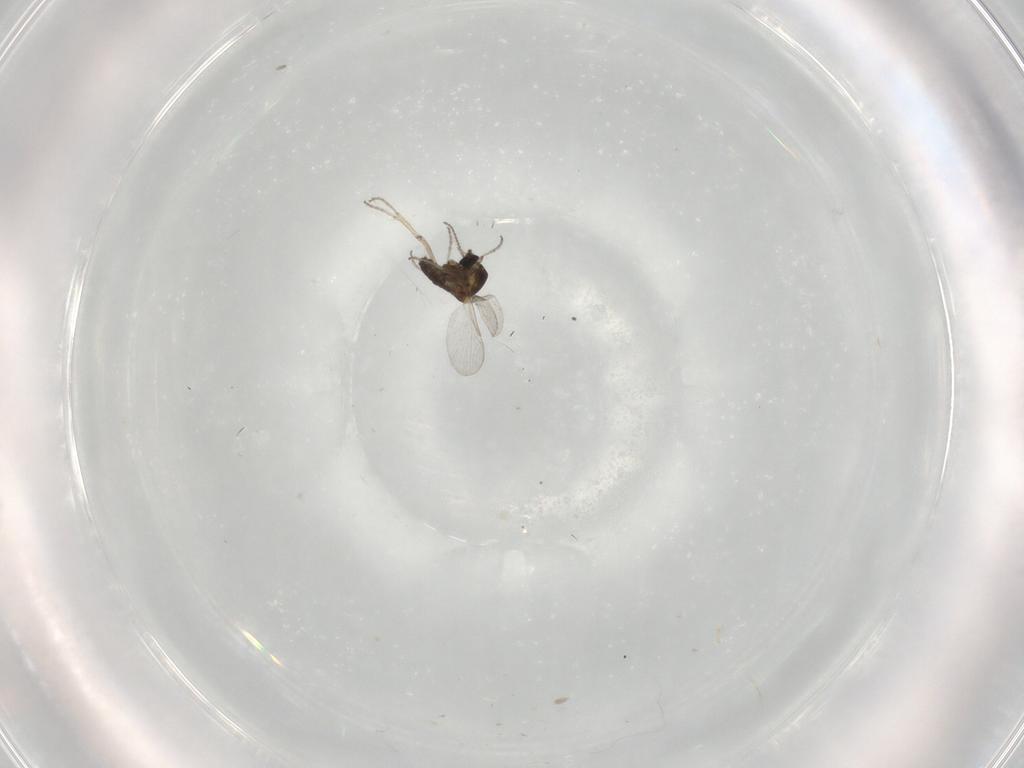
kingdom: Animalia
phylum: Arthropoda
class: Insecta
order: Diptera
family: Ceratopogonidae
